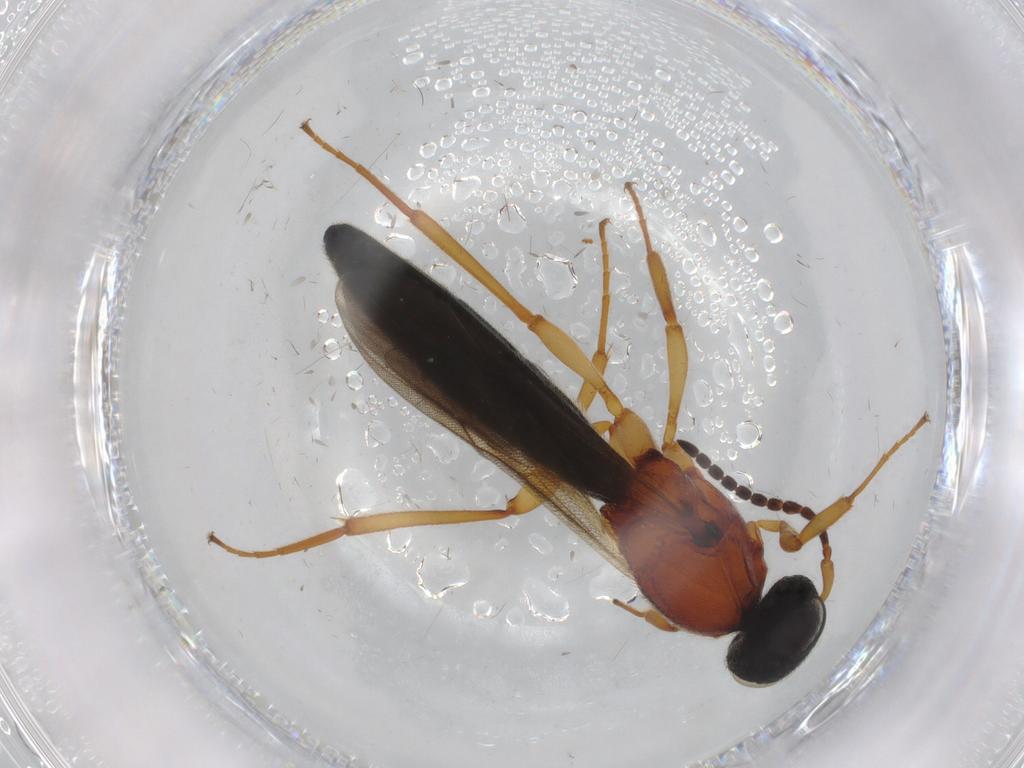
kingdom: Animalia
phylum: Arthropoda
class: Insecta
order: Hymenoptera
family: Scelionidae
